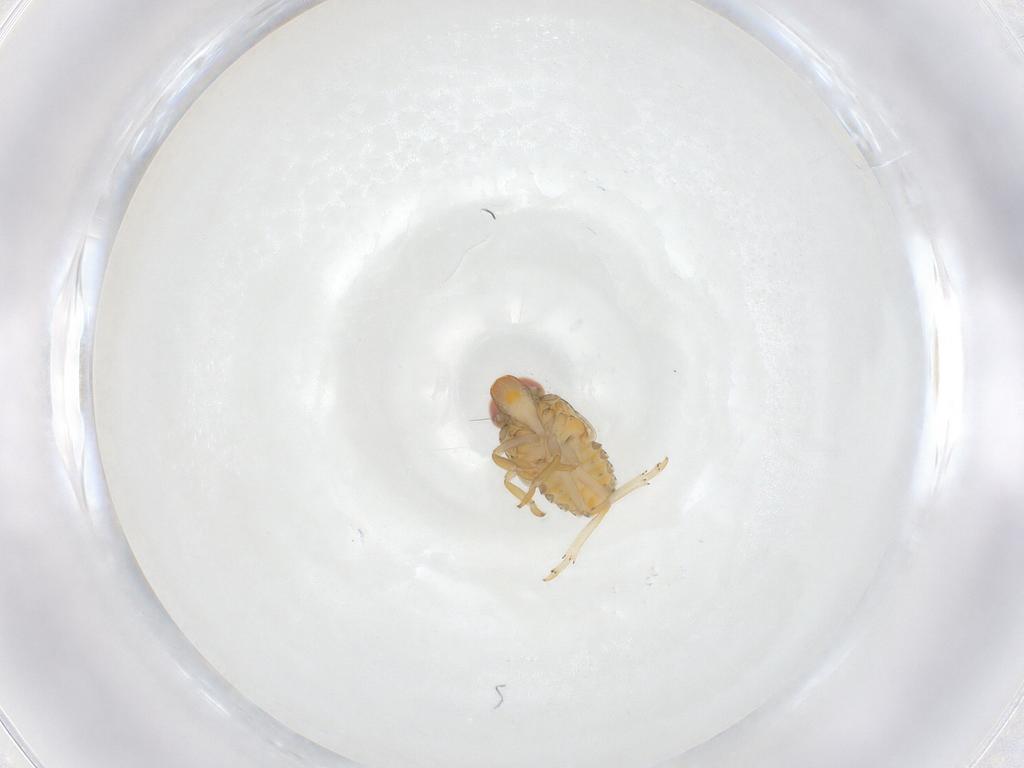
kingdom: Animalia
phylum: Arthropoda
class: Insecta
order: Hemiptera
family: Fulgoroidea_incertae_sedis
